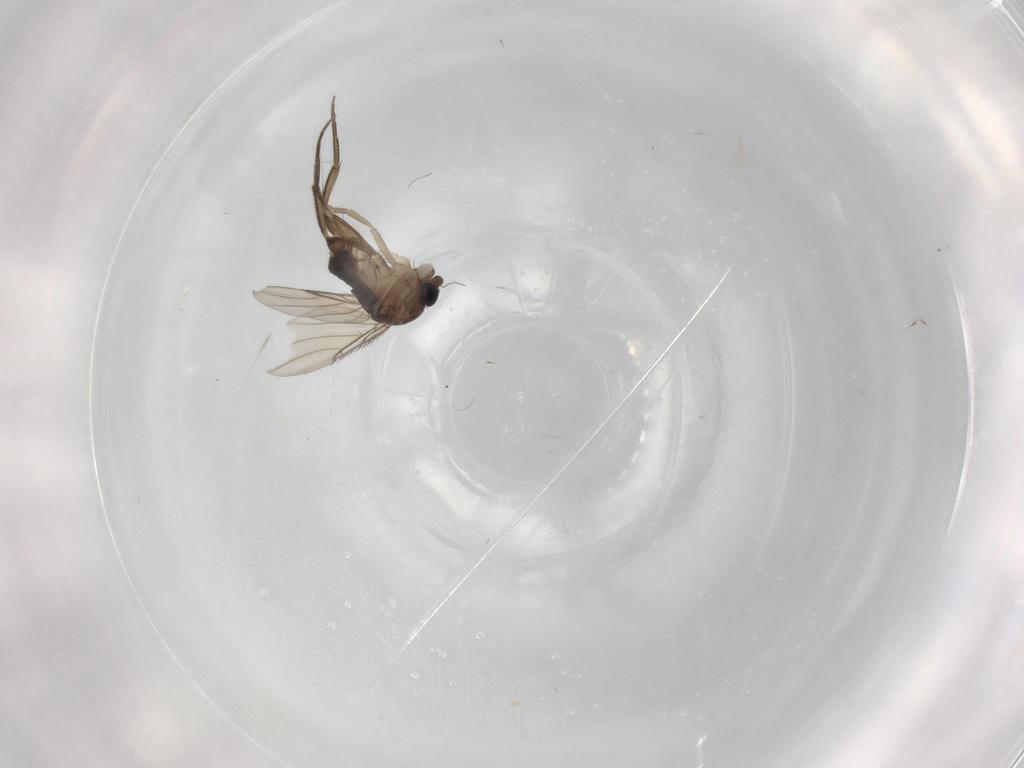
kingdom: Animalia
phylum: Arthropoda
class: Insecta
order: Diptera
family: Phoridae
